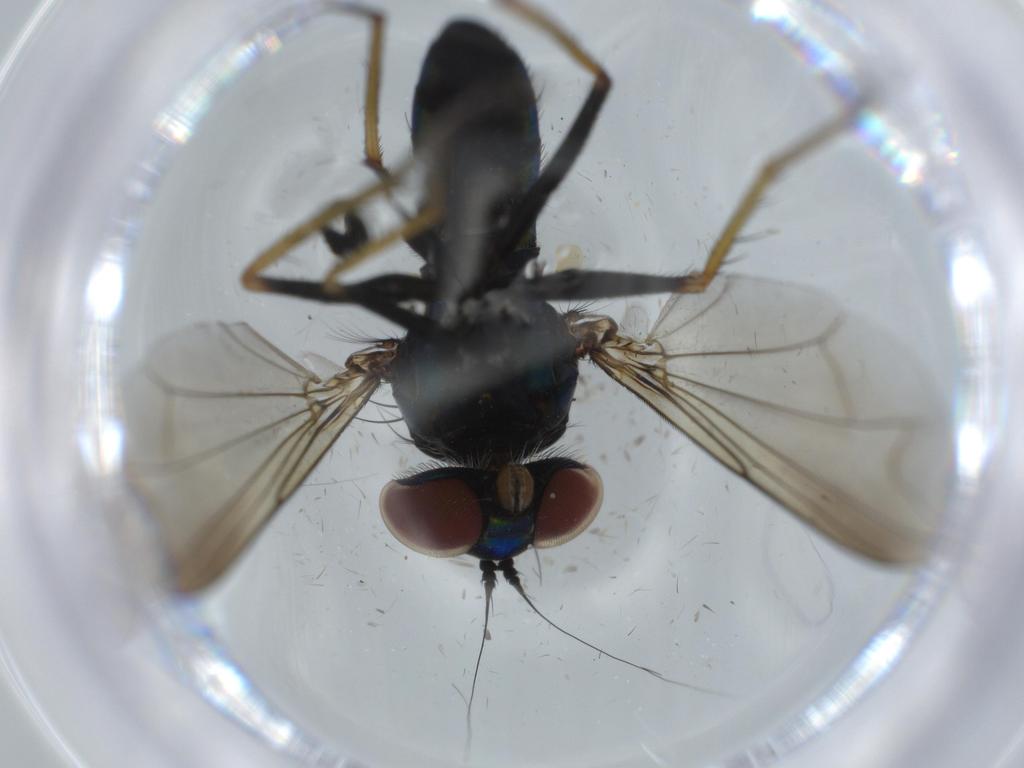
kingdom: Animalia
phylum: Arthropoda
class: Insecta
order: Diptera
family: Dolichopodidae
